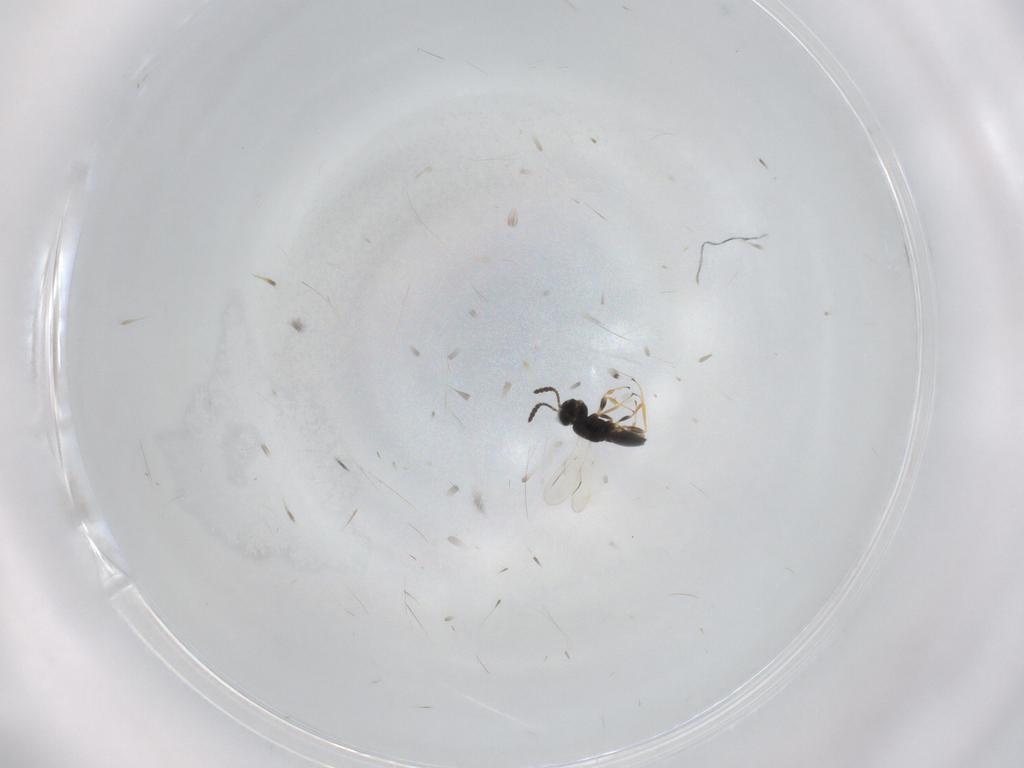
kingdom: Animalia
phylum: Arthropoda
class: Insecta
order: Hymenoptera
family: Scelionidae
